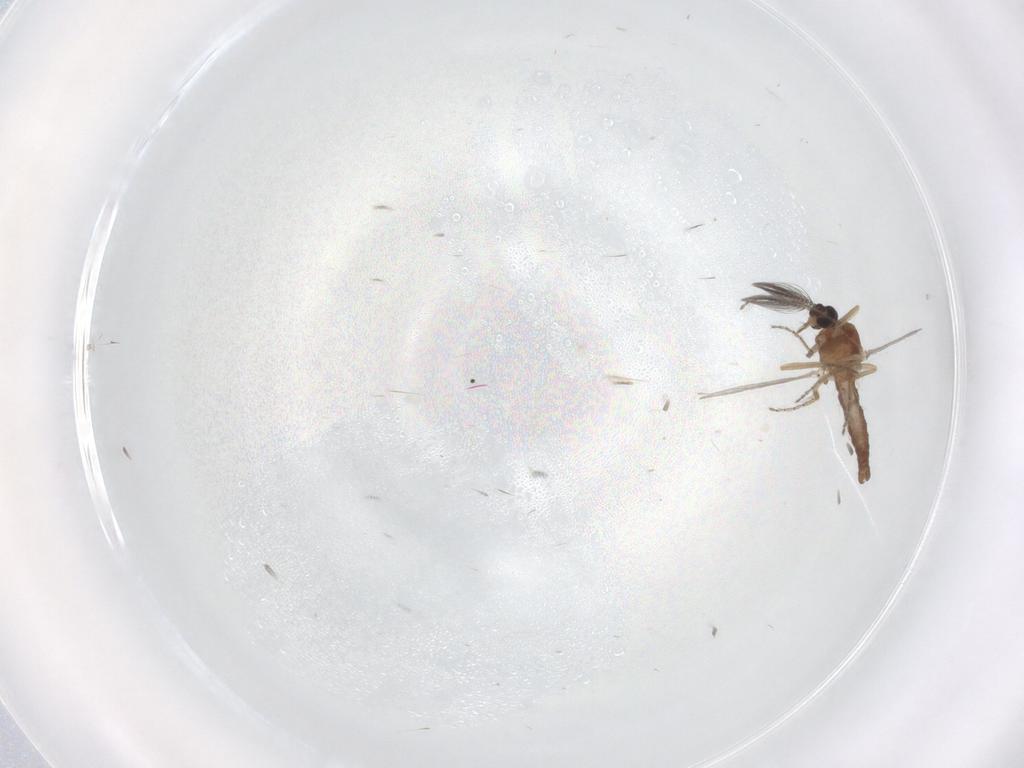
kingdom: Animalia
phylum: Arthropoda
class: Insecta
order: Diptera
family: Cecidomyiidae
